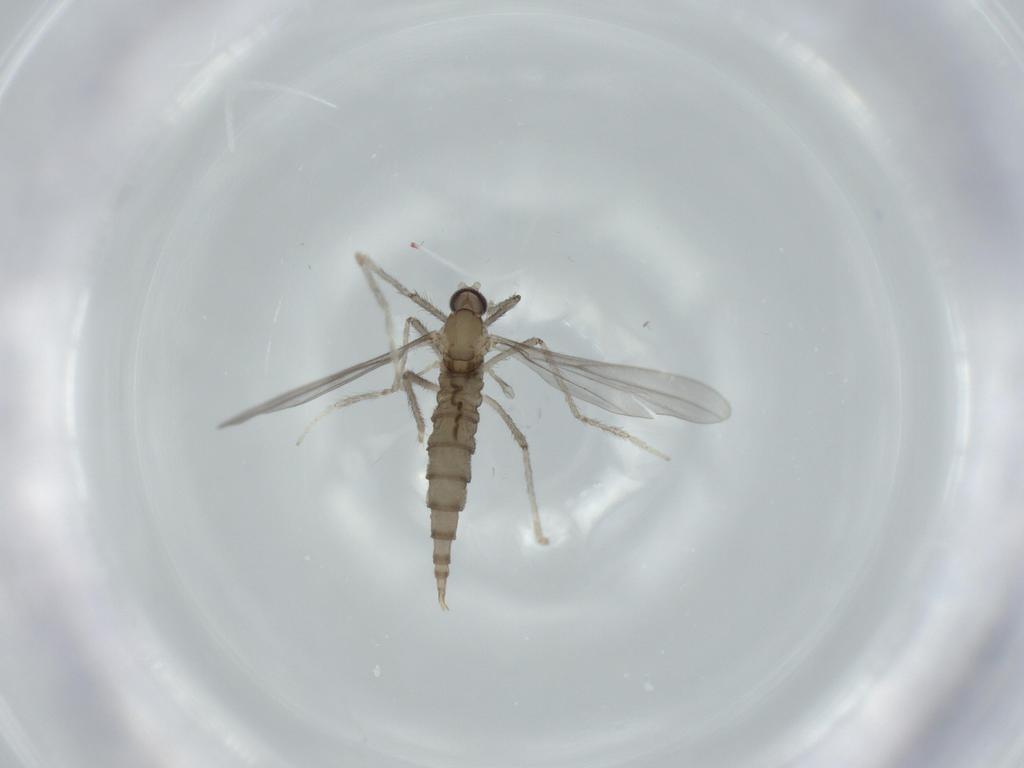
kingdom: Animalia
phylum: Arthropoda
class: Insecta
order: Diptera
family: Cecidomyiidae
